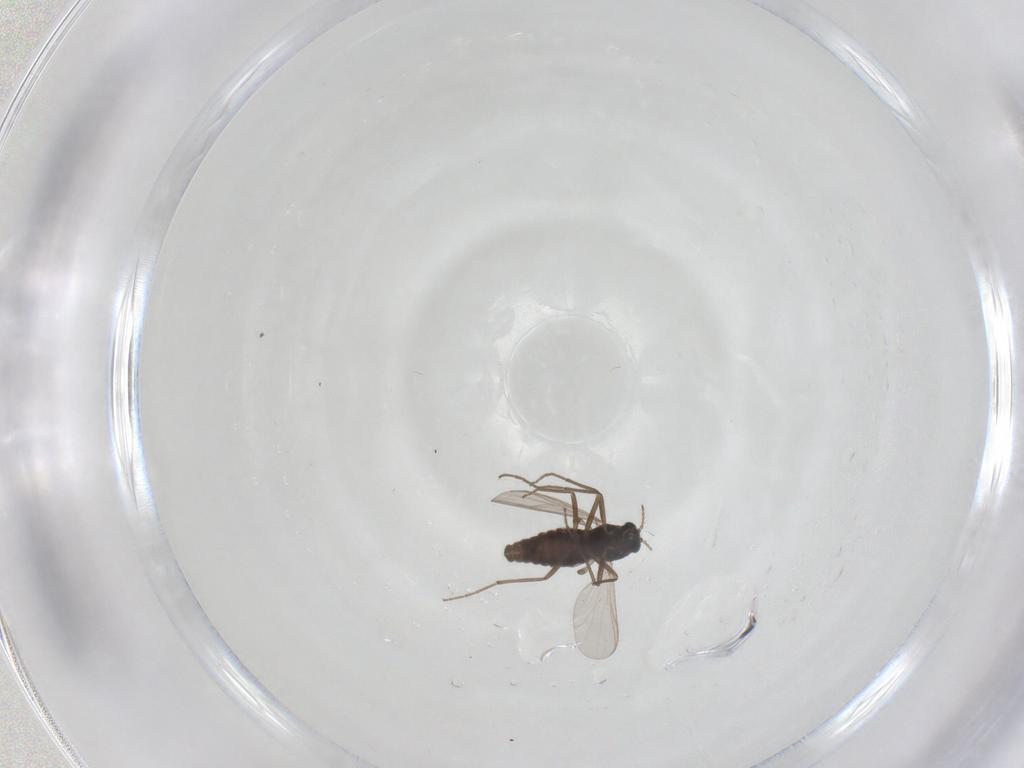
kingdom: Animalia
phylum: Arthropoda
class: Insecta
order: Diptera
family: Chironomidae
